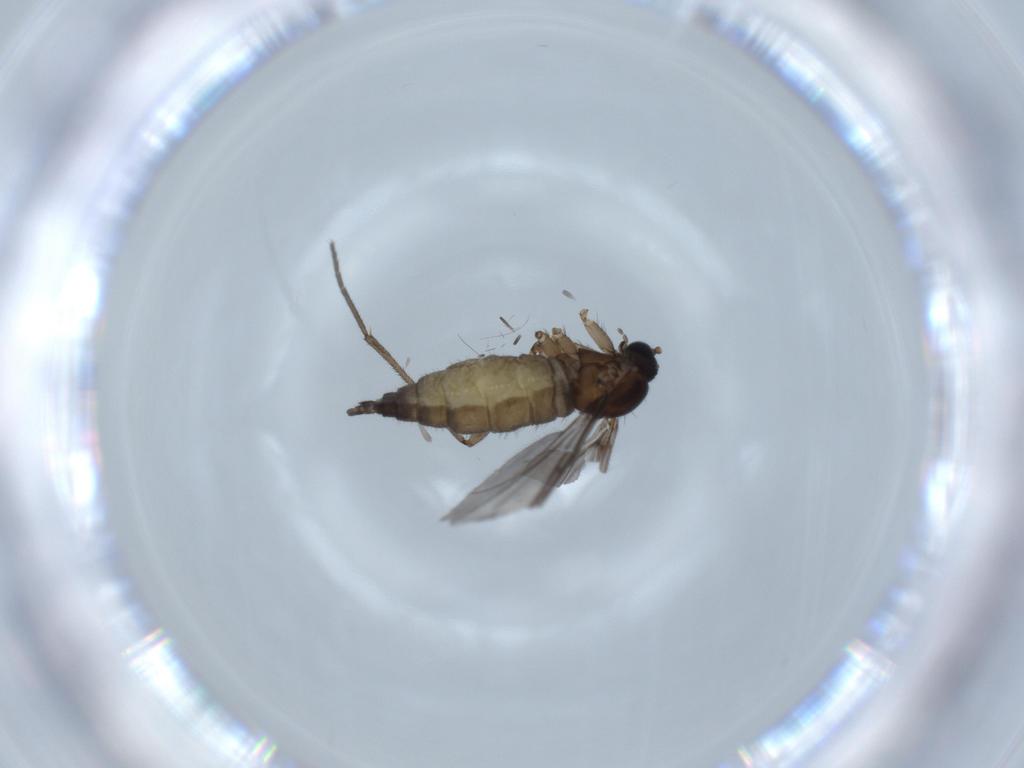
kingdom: Animalia
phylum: Arthropoda
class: Insecta
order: Diptera
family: Sciaridae
